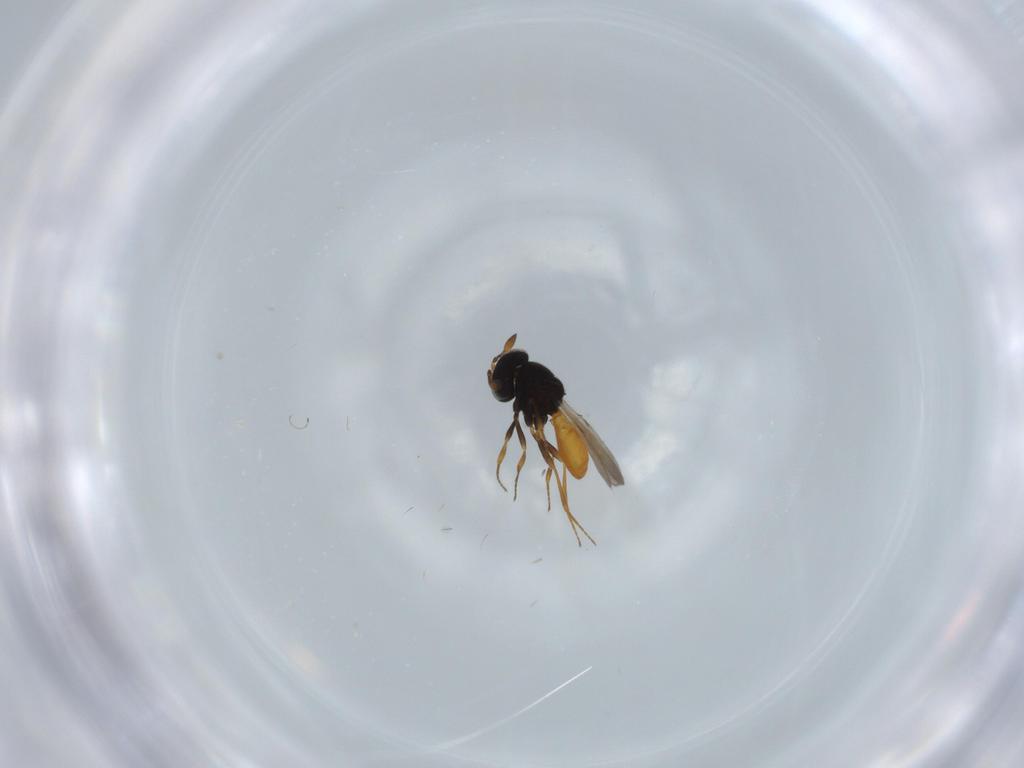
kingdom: Animalia
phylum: Arthropoda
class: Insecta
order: Hymenoptera
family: Scelionidae
